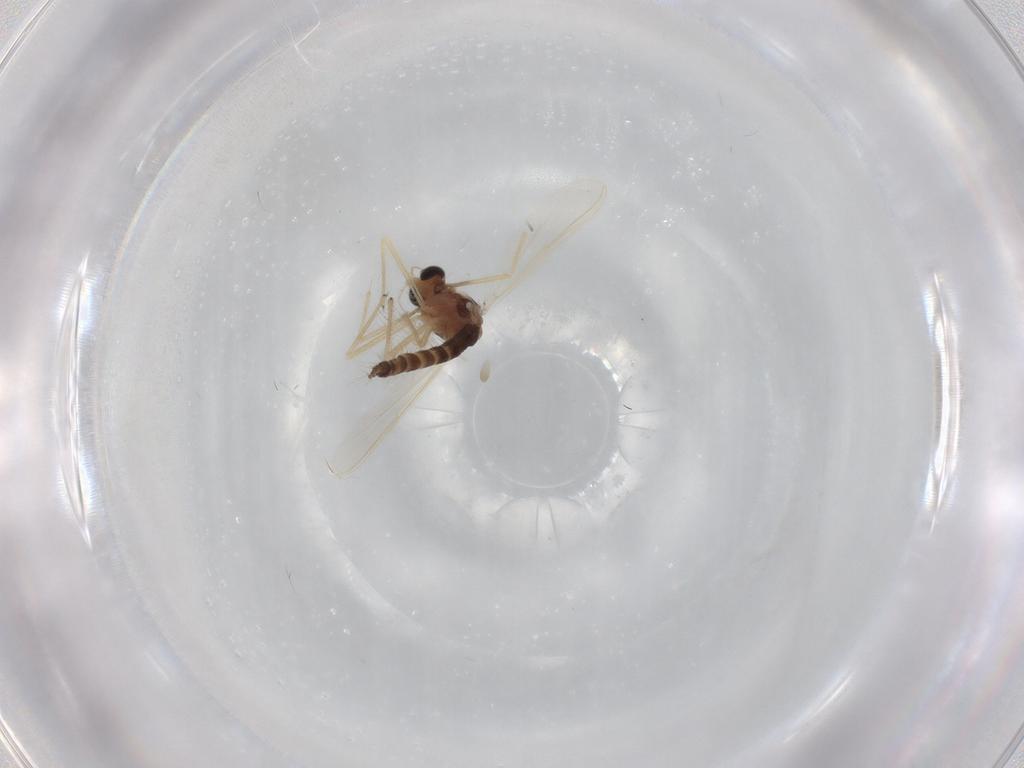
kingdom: Animalia
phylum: Arthropoda
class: Insecta
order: Diptera
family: Chironomidae
